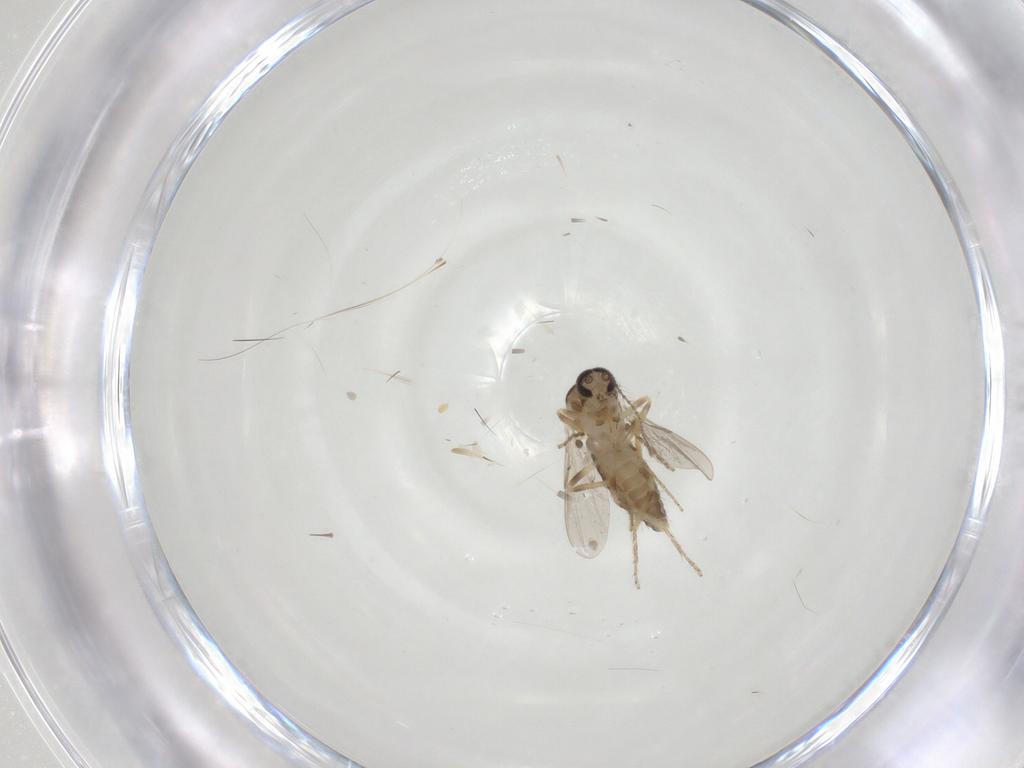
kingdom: Animalia
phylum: Arthropoda
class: Insecta
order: Diptera
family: Ceratopogonidae
